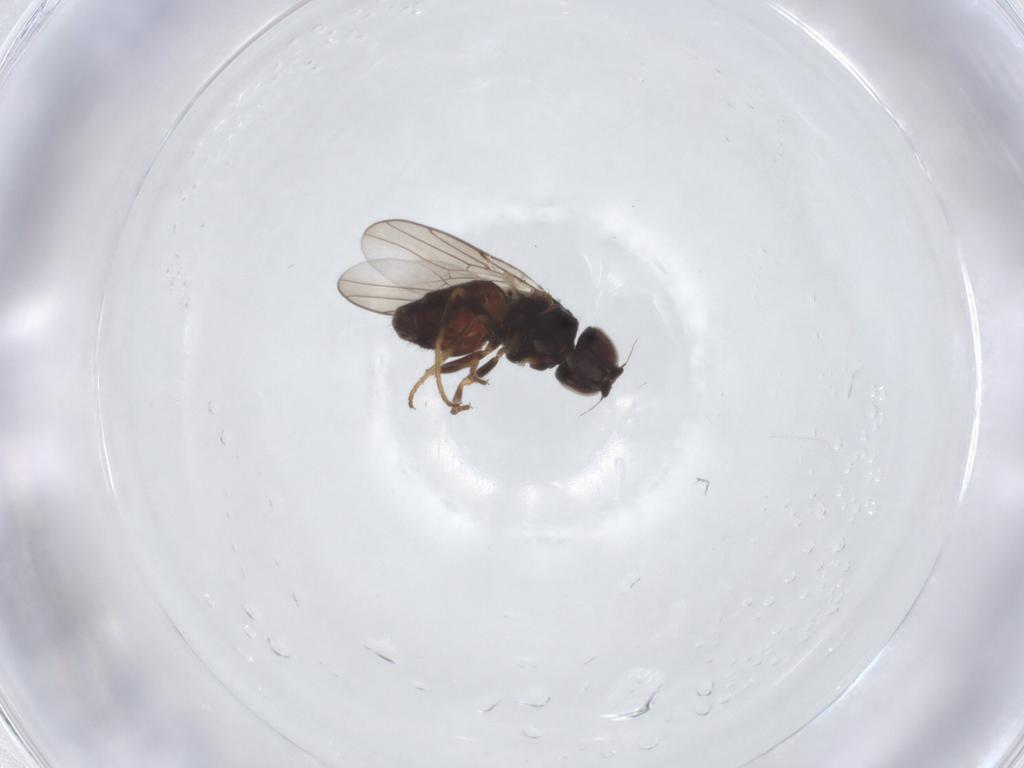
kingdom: Animalia
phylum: Arthropoda
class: Insecta
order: Diptera
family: Chloropidae
